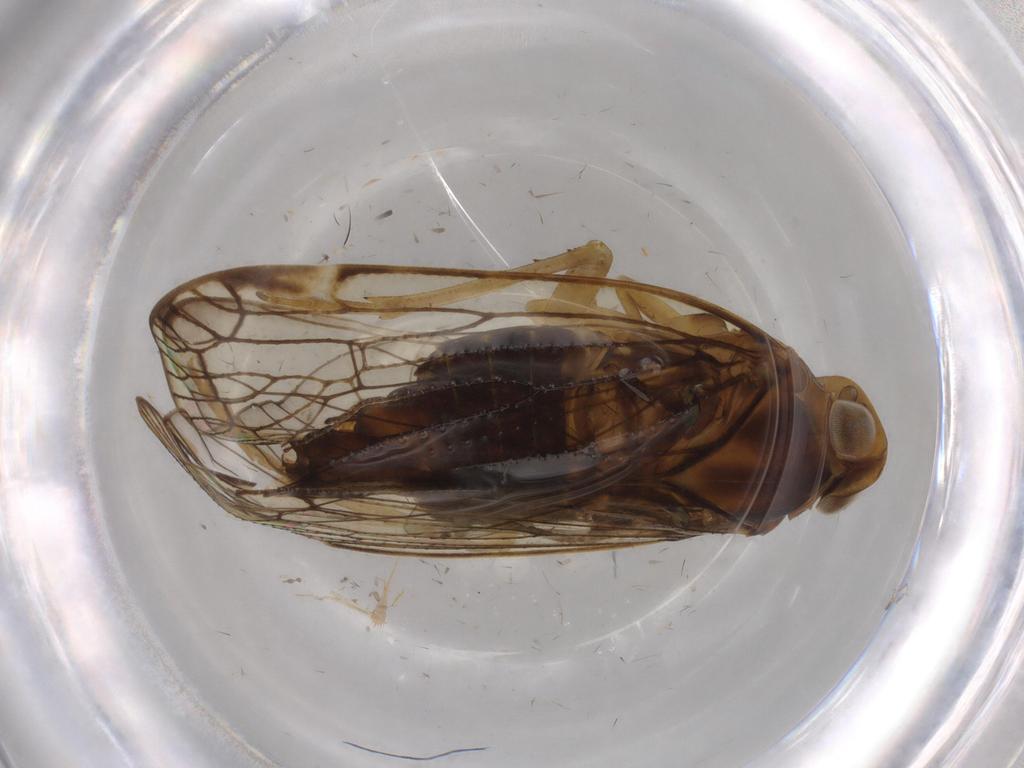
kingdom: Animalia
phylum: Arthropoda
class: Insecta
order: Hemiptera
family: Cixiidae
